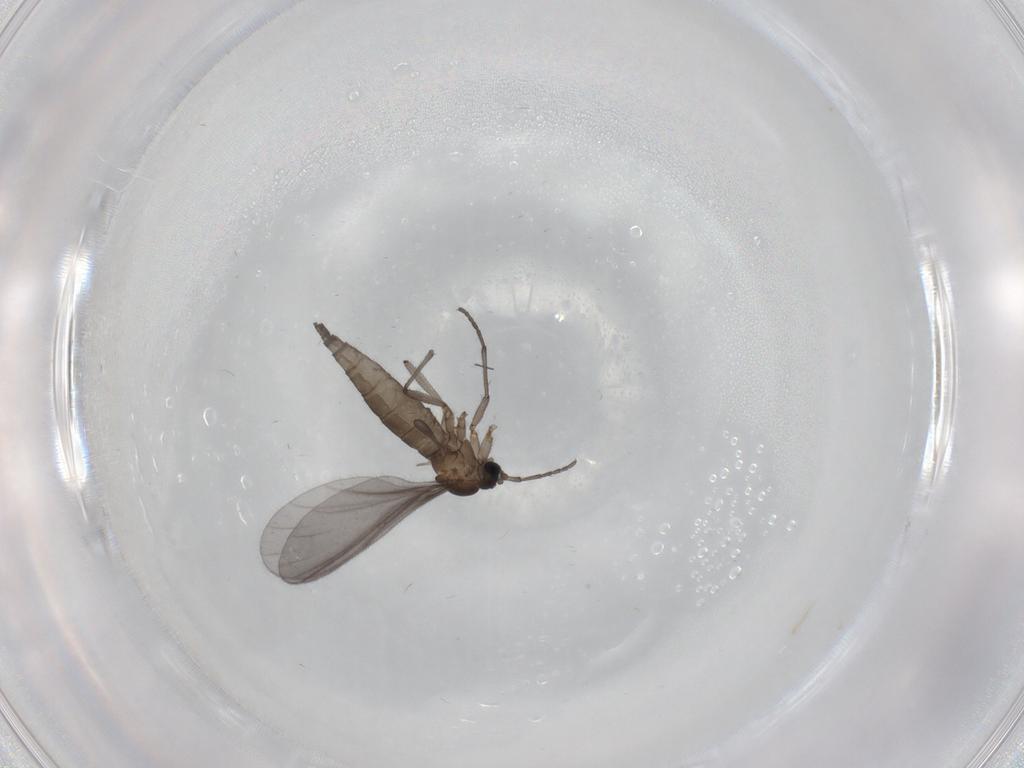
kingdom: Animalia
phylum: Arthropoda
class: Insecta
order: Diptera
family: Sciaridae
